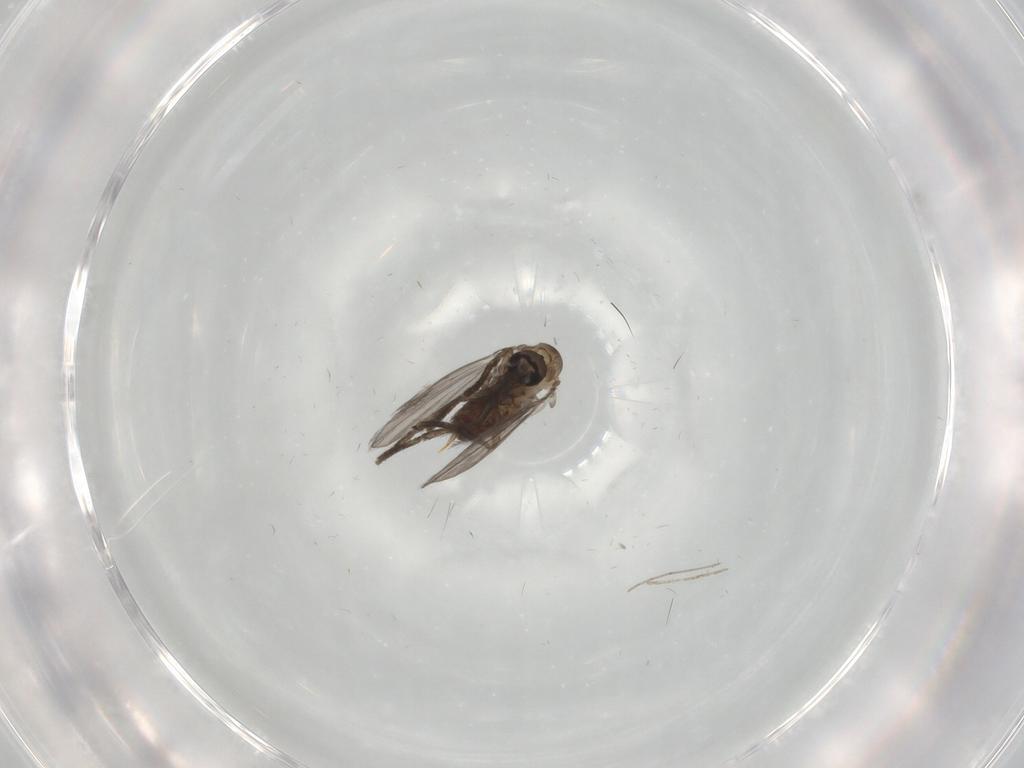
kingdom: Animalia
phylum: Arthropoda
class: Insecta
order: Diptera
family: Psychodidae
